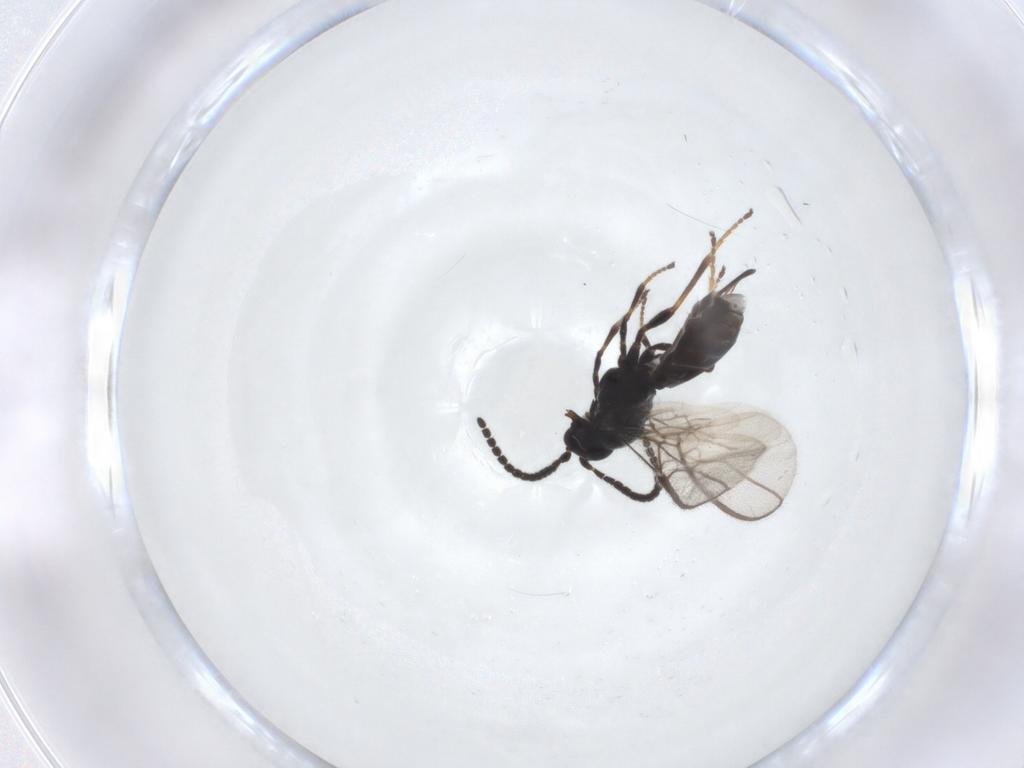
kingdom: Animalia
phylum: Arthropoda
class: Insecta
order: Hymenoptera
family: Braconidae
